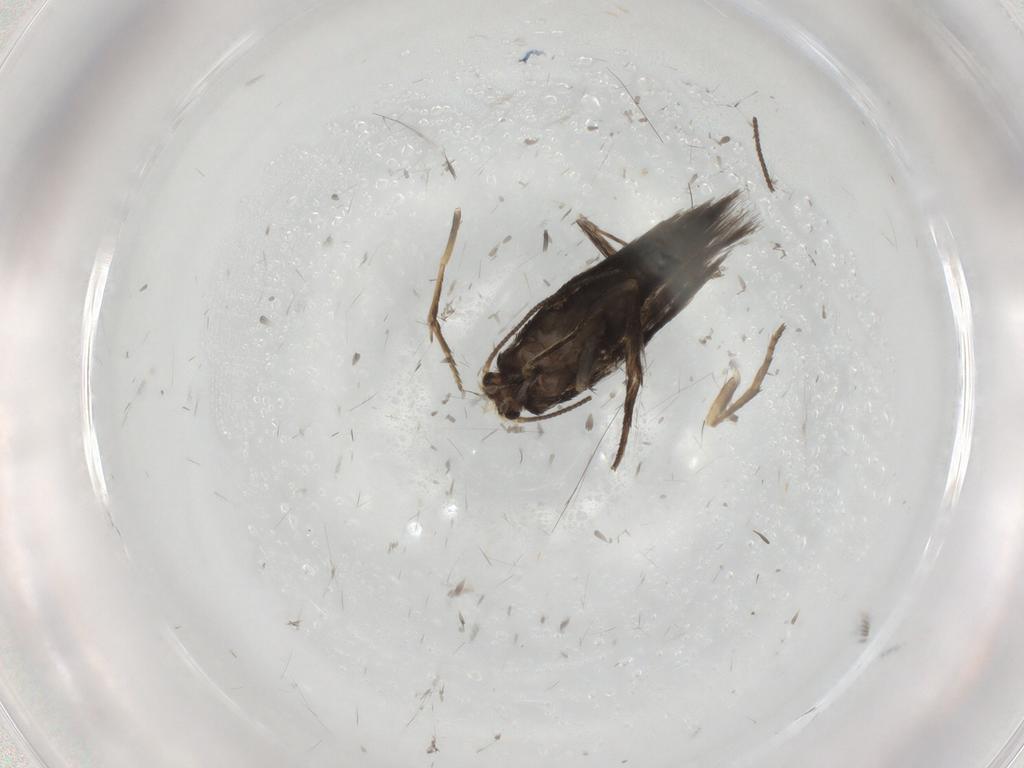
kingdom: Animalia
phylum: Arthropoda
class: Insecta
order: Lepidoptera
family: Nepticulidae
